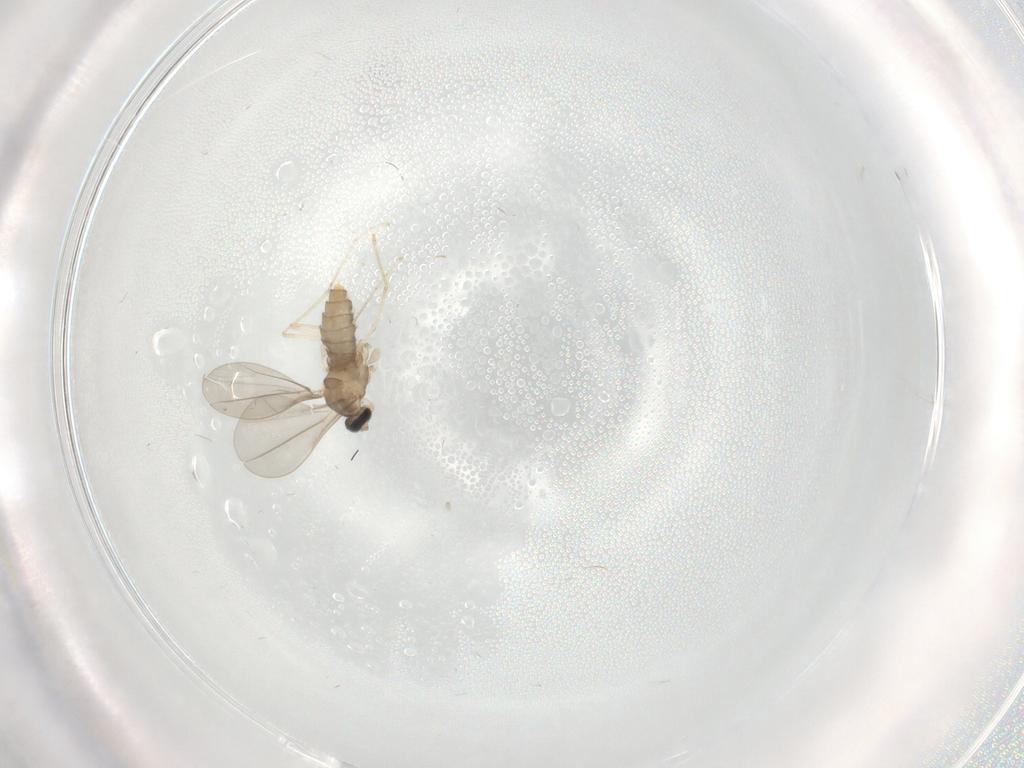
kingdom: Animalia
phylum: Arthropoda
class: Insecta
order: Diptera
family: Cecidomyiidae
